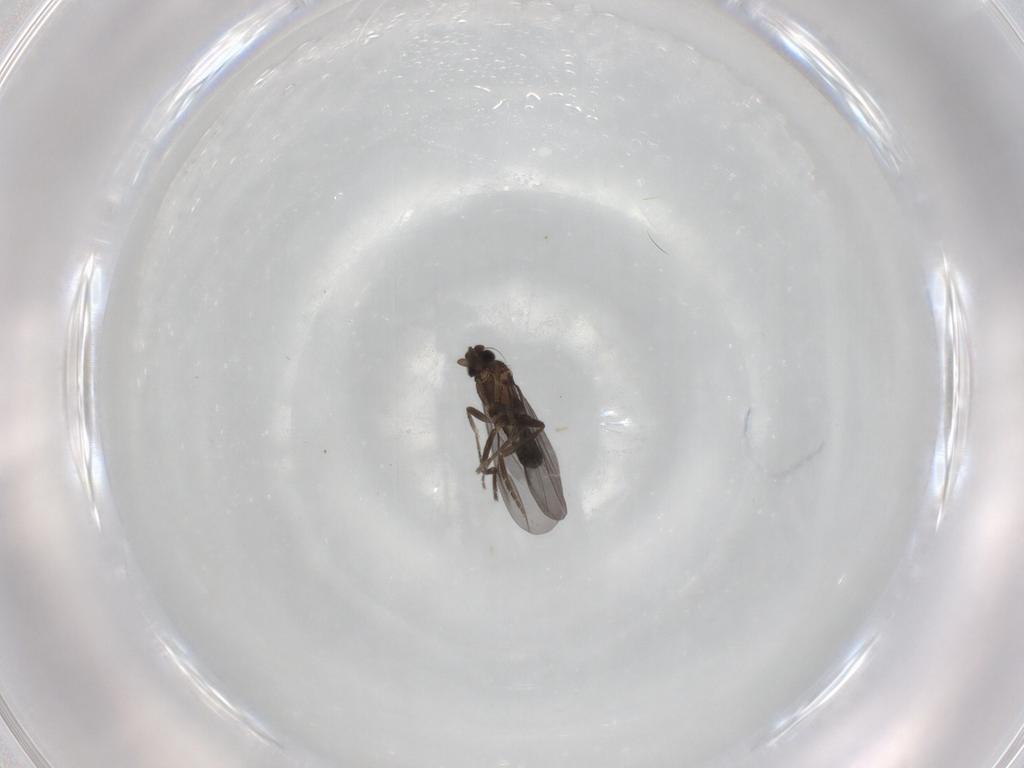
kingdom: Animalia
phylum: Arthropoda
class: Insecta
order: Diptera
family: Phoridae
